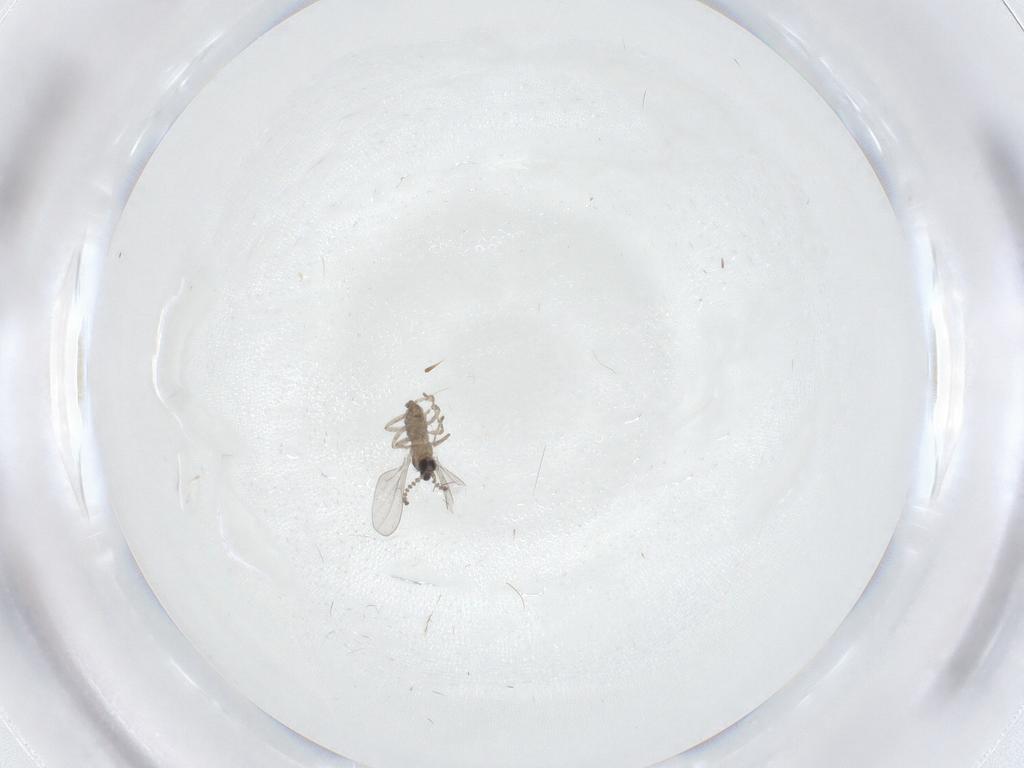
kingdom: Animalia
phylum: Arthropoda
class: Insecta
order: Diptera
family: Cecidomyiidae
